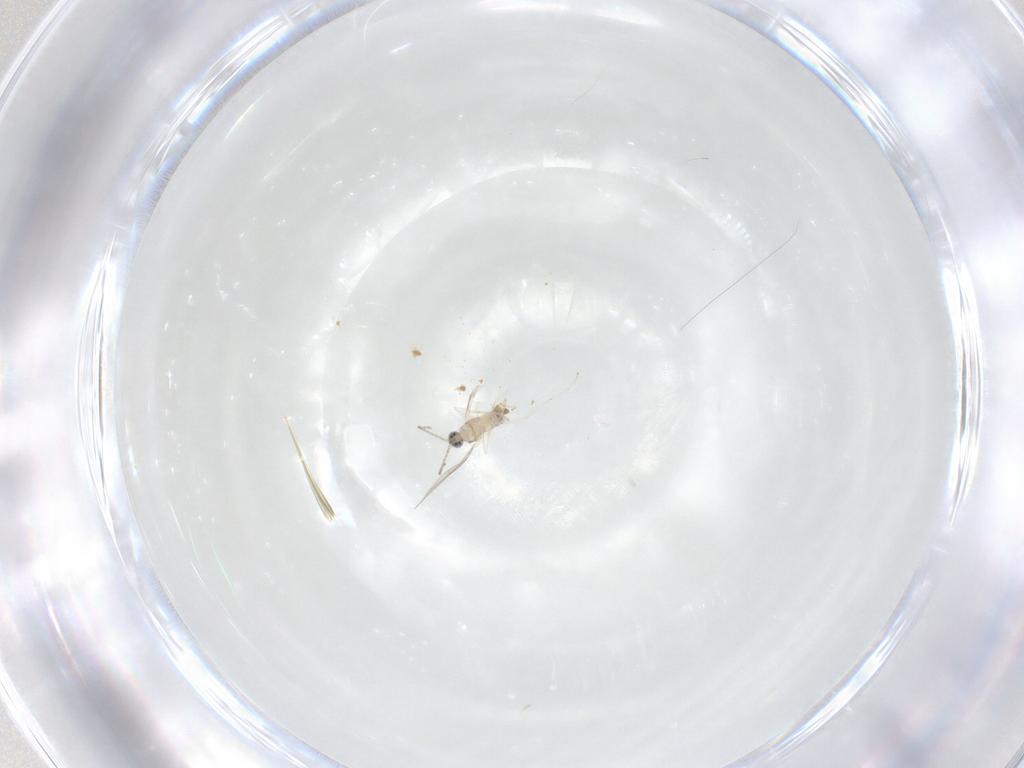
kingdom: Animalia
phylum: Arthropoda
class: Insecta
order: Diptera
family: Cecidomyiidae
